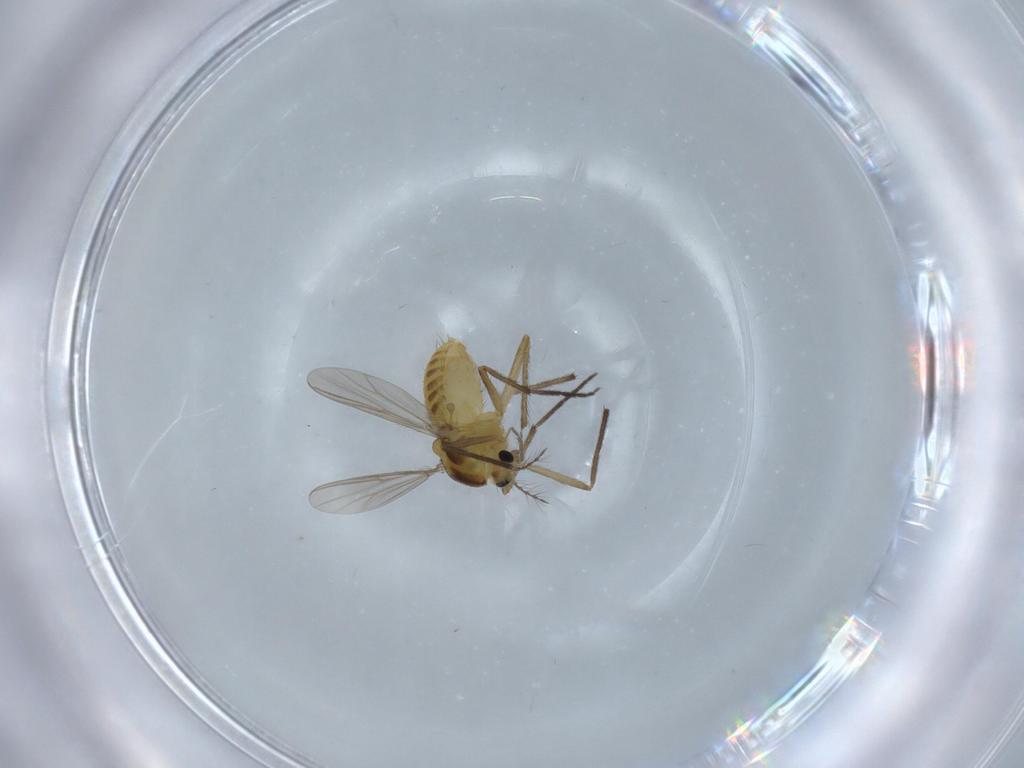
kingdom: Animalia
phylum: Arthropoda
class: Insecta
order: Diptera
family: Chironomidae
